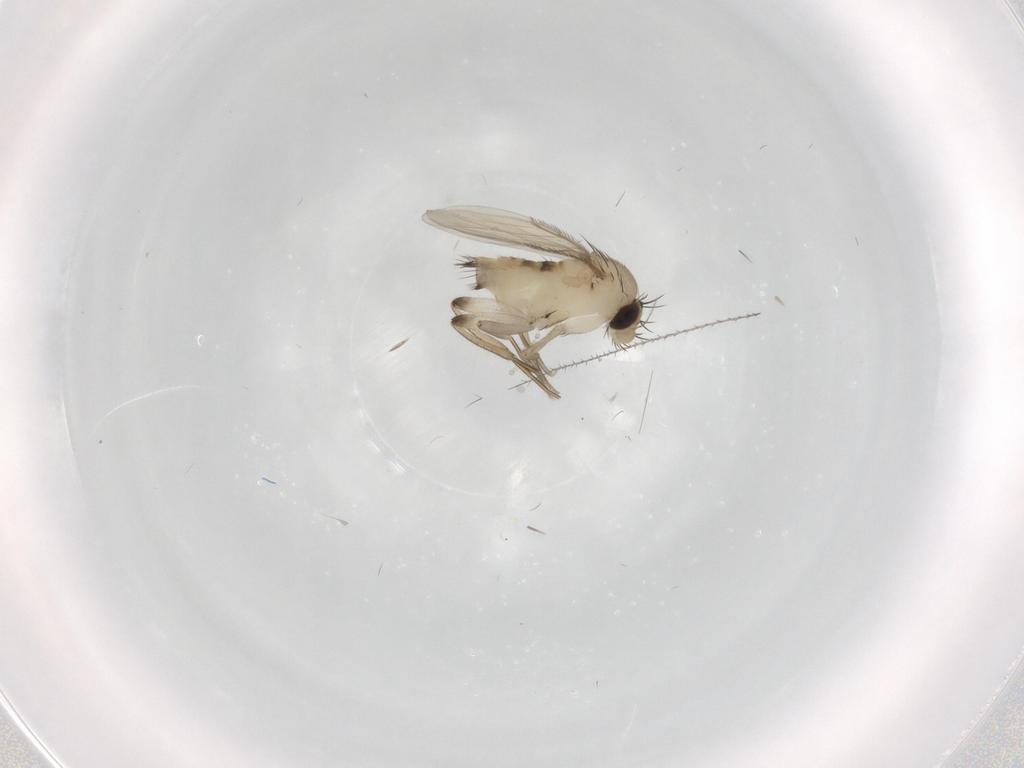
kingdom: Animalia
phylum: Arthropoda
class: Insecta
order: Diptera
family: Phoridae
